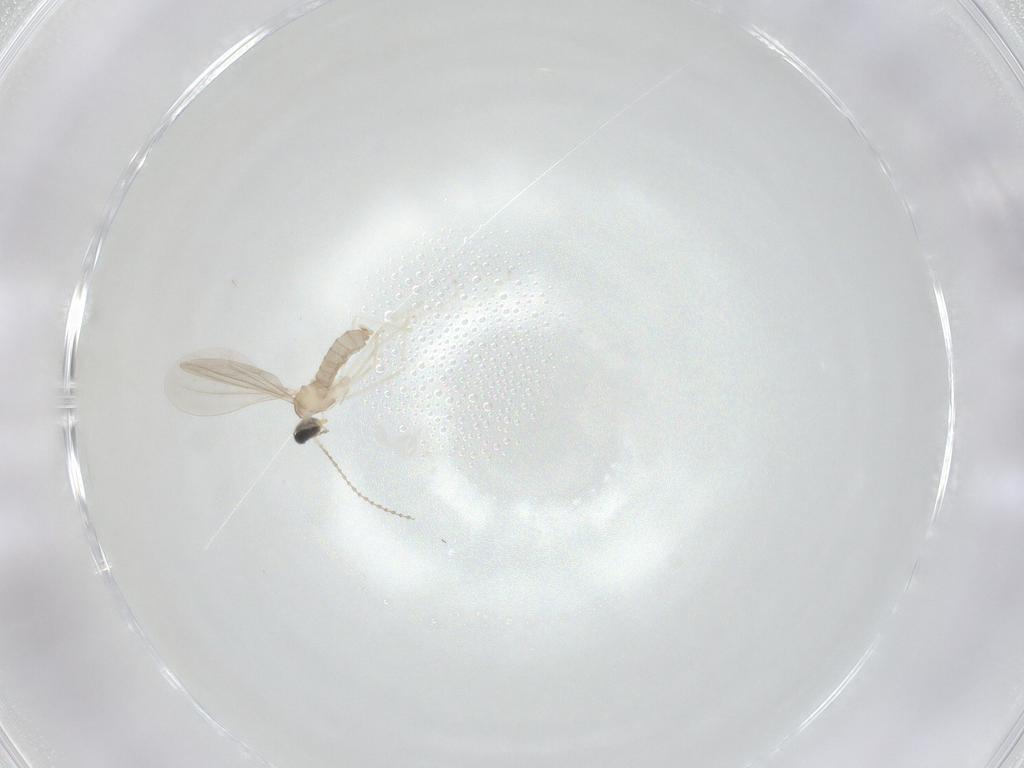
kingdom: Animalia
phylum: Arthropoda
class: Insecta
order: Diptera
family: Cecidomyiidae
